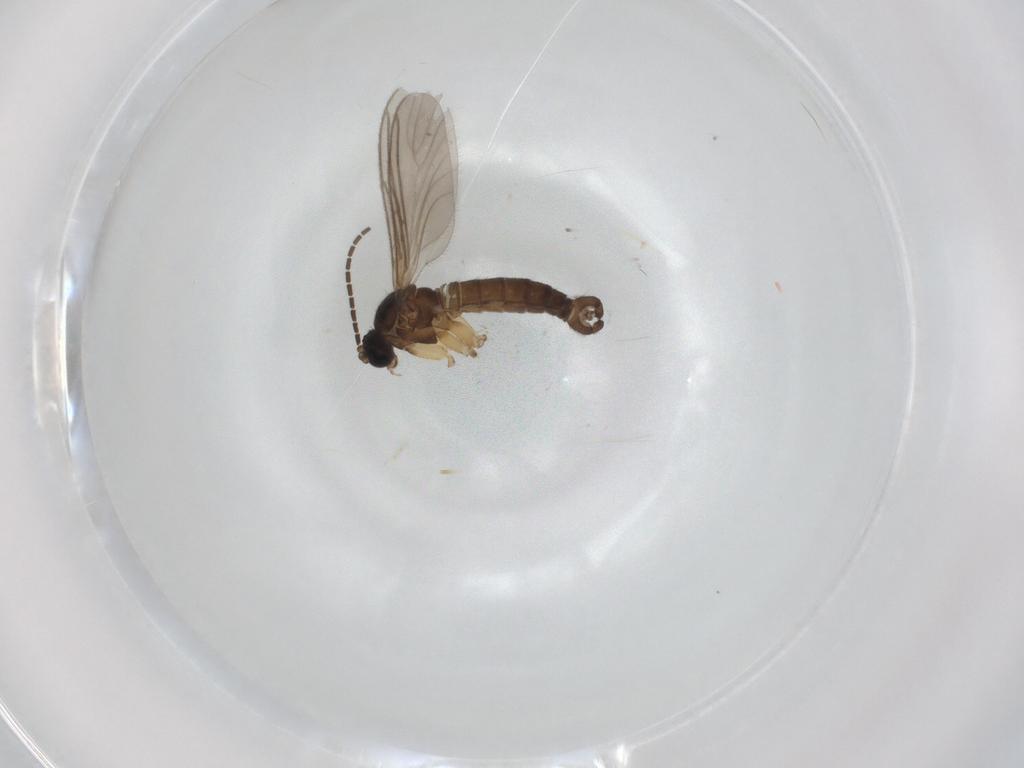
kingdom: Animalia
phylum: Arthropoda
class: Insecta
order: Diptera
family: Sciaridae
